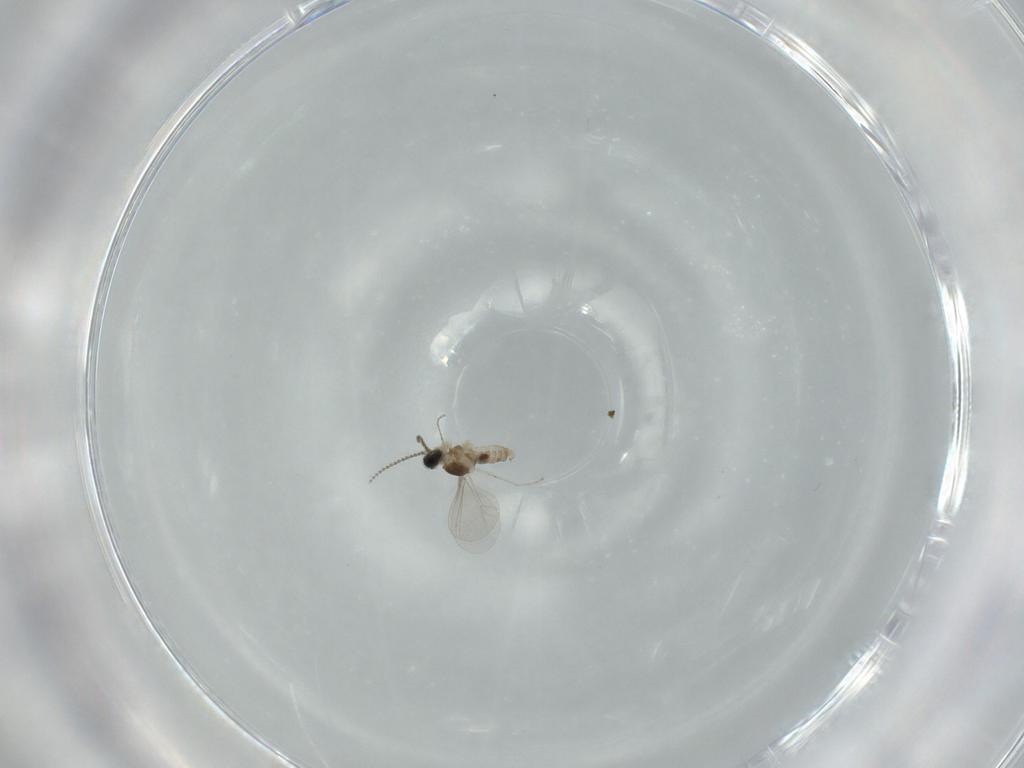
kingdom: Animalia
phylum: Arthropoda
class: Insecta
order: Diptera
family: Cecidomyiidae
